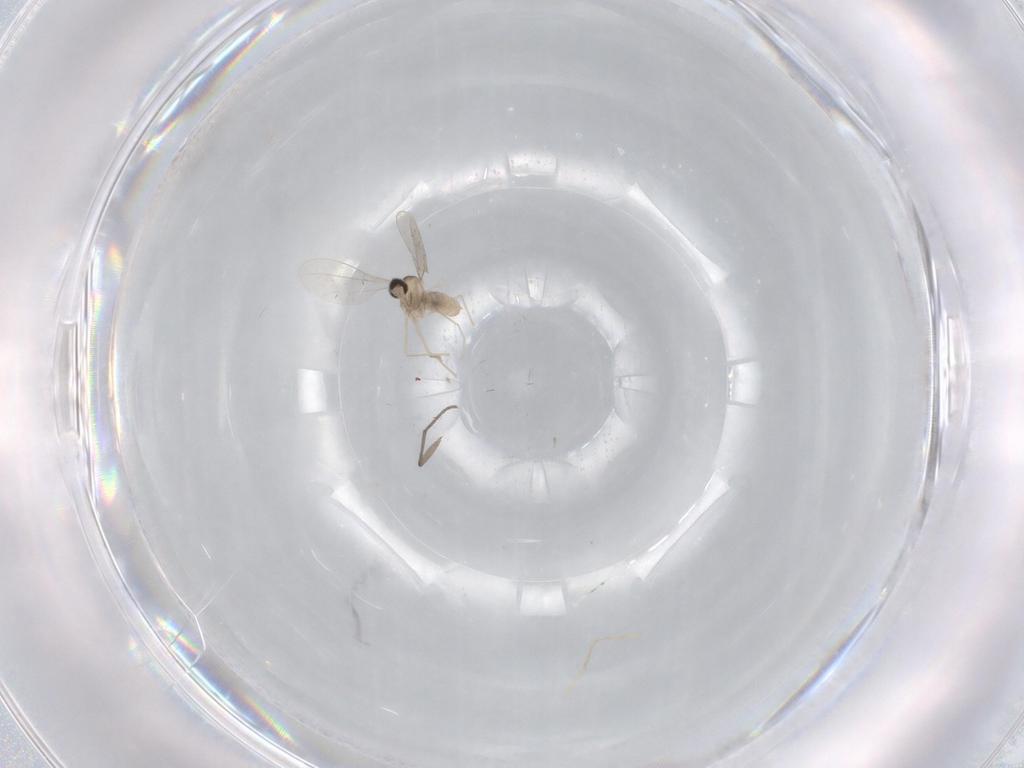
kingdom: Animalia
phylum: Arthropoda
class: Insecta
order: Diptera
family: Cecidomyiidae
